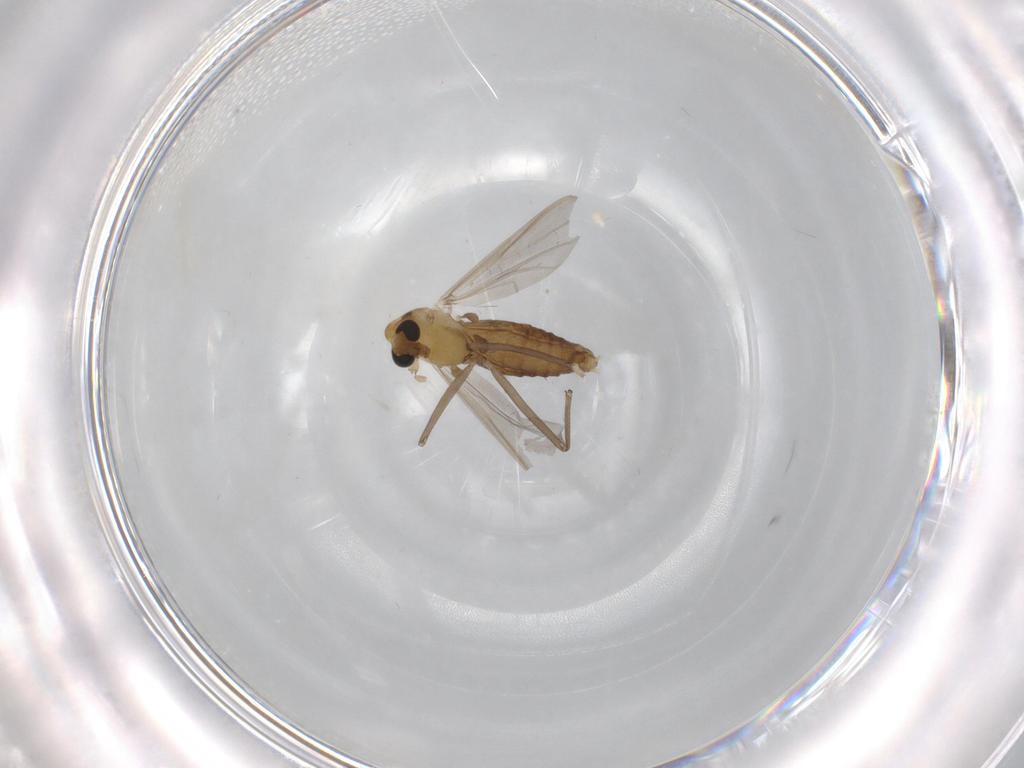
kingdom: Animalia
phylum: Arthropoda
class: Insecta
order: Diptera
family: Chironomidae
